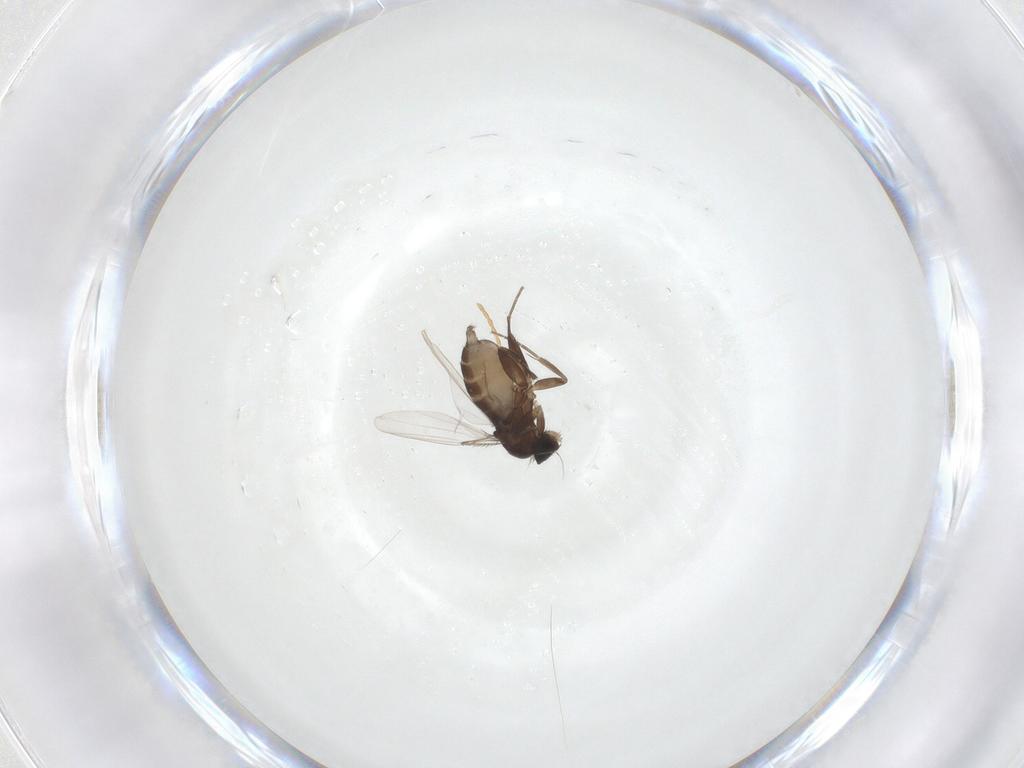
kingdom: Animalia
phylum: Arthropoda
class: Insecta
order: Diptera
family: Phoridae
